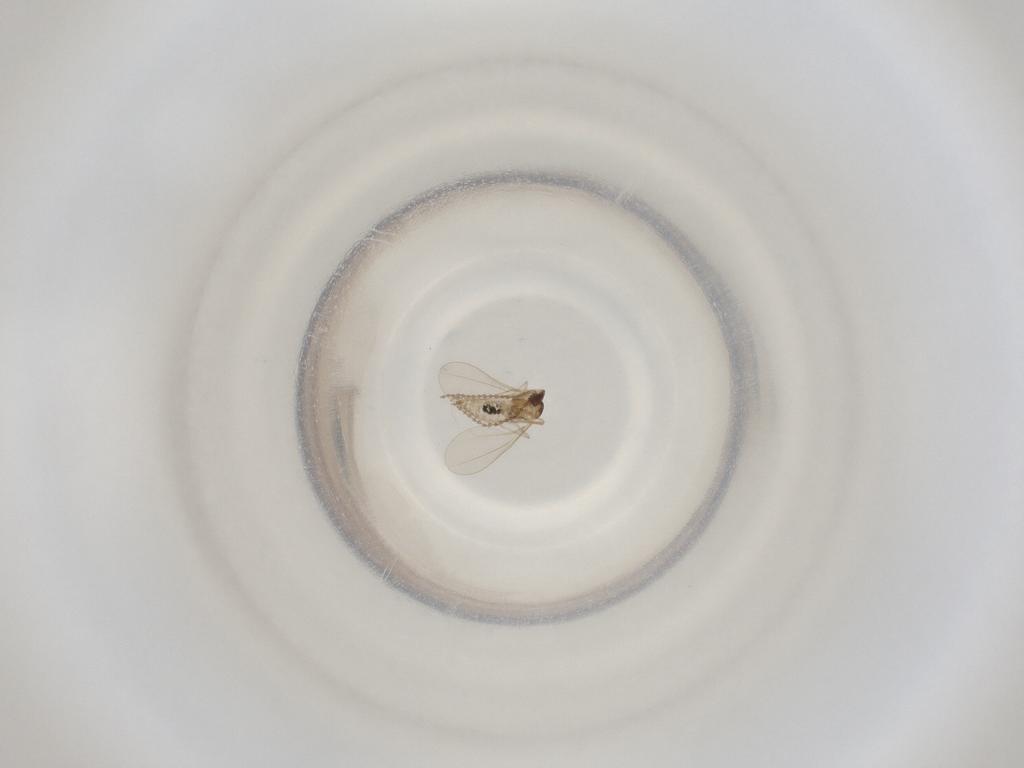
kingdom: Animalia
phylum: Arthropoda
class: Insecta
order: Diptera
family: Cecidomyiidae
